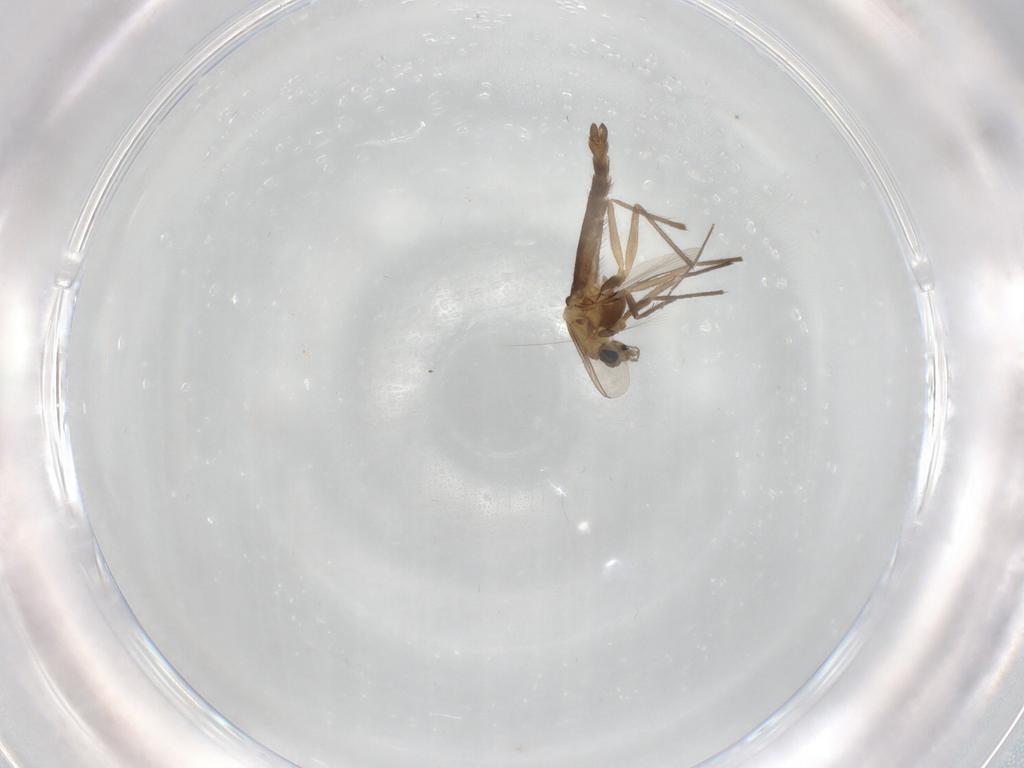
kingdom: Animalia
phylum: Arthropoda
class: Insecta
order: Diptera
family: Chironomidae
